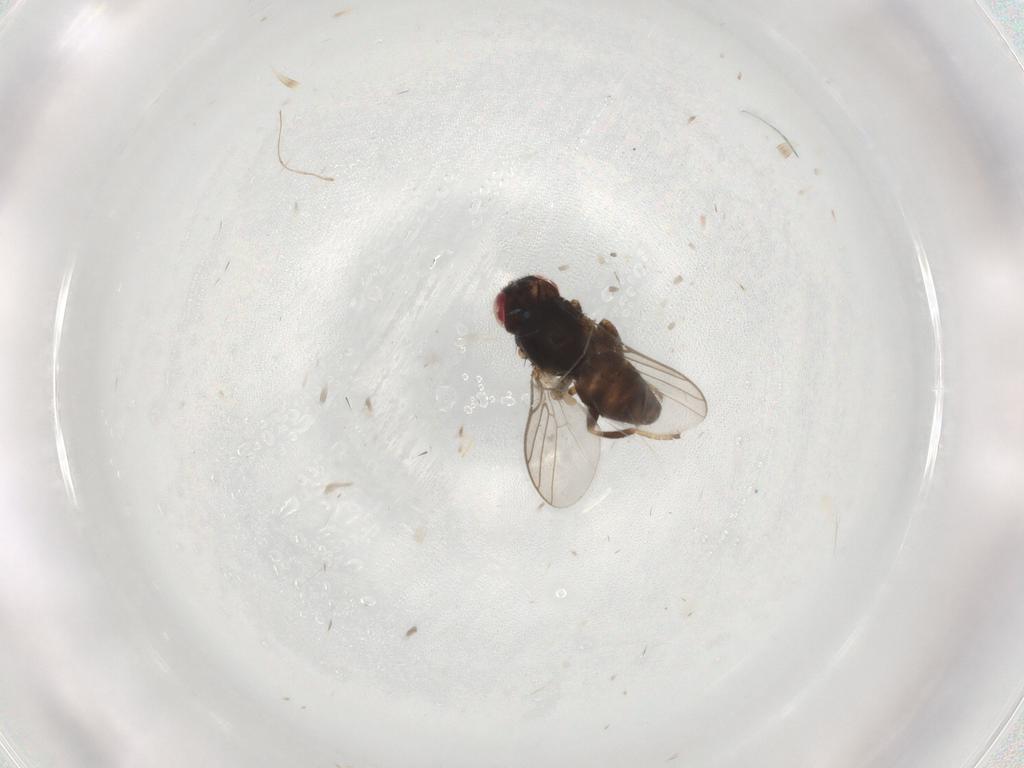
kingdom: Animalia
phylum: Arthropoda
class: Insecta
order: Diptera
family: Chloropidae
